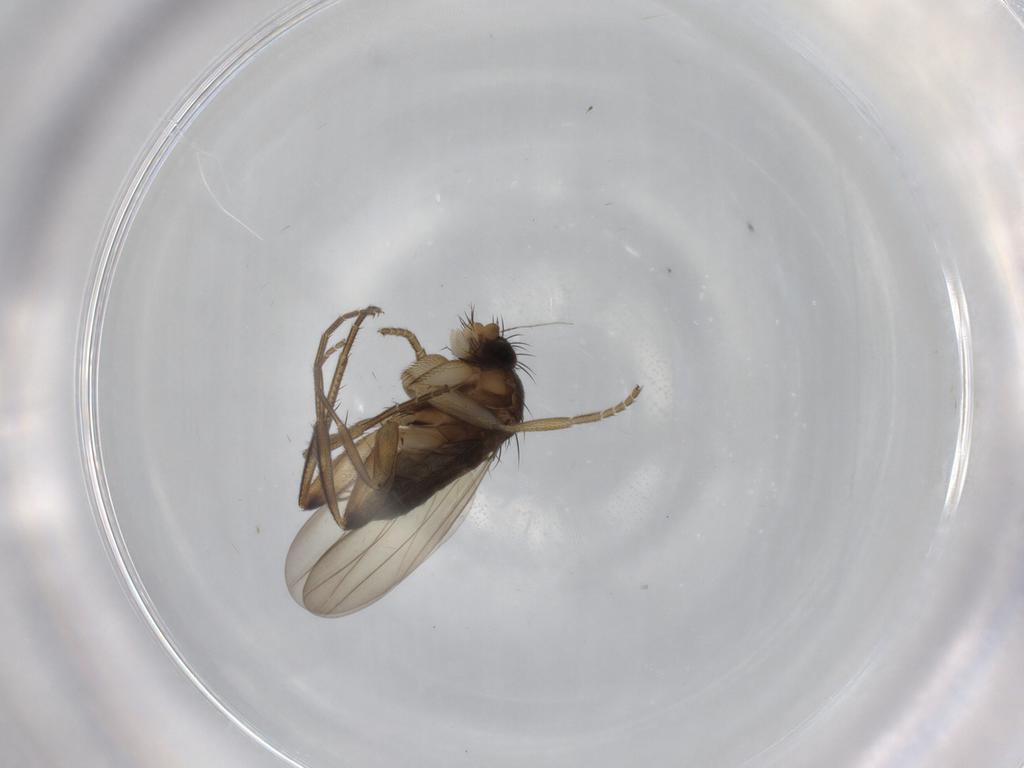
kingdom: Animalia
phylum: Arthropoda
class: Insecta
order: Diptera
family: Phoridae
